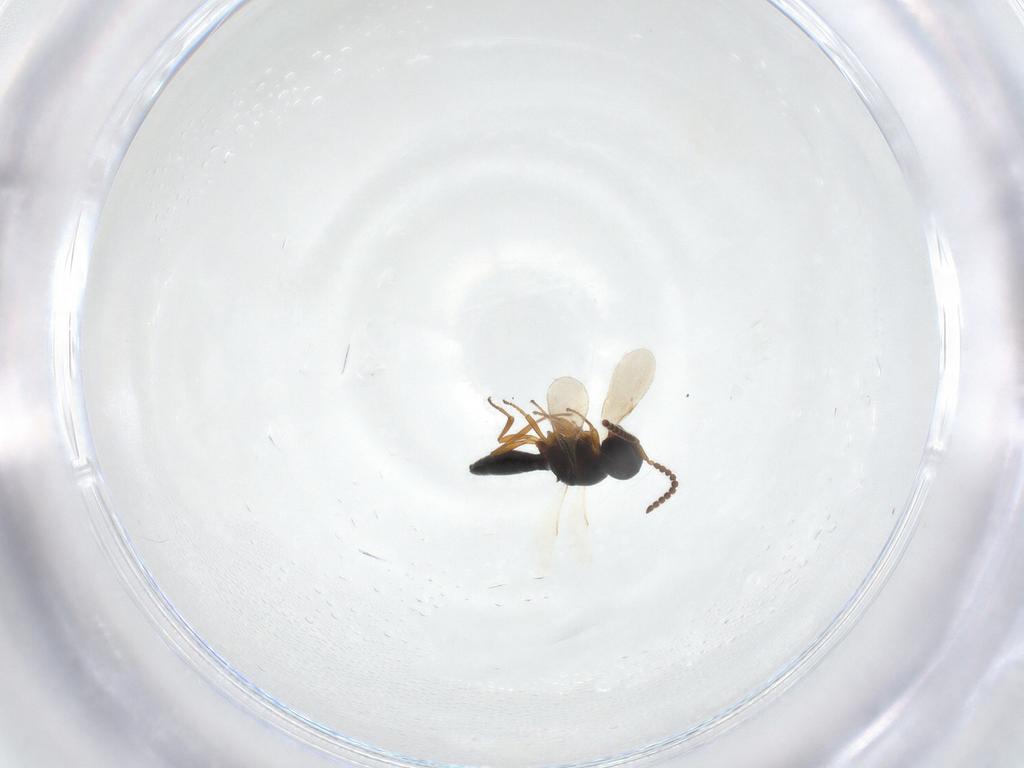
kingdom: Animalia
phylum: Arthropoda
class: Insecta
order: Hymenoptera
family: Scelionidae
